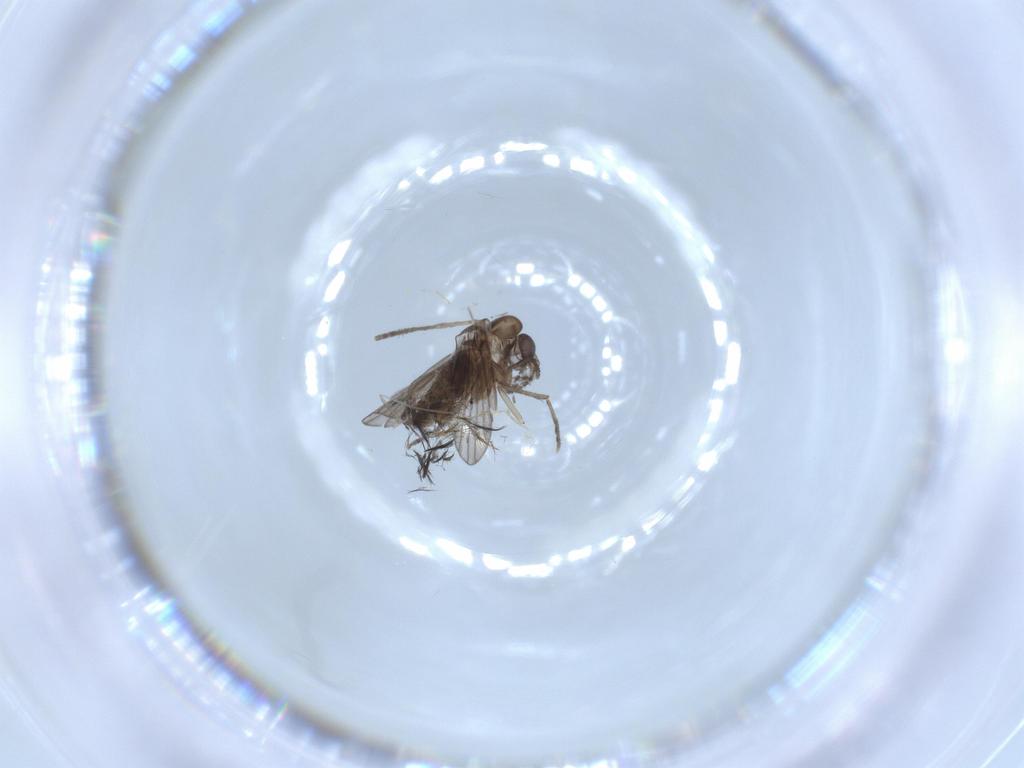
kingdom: Animalia
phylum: Arthropoda
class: Insecta
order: Diptera
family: Psychodidae
